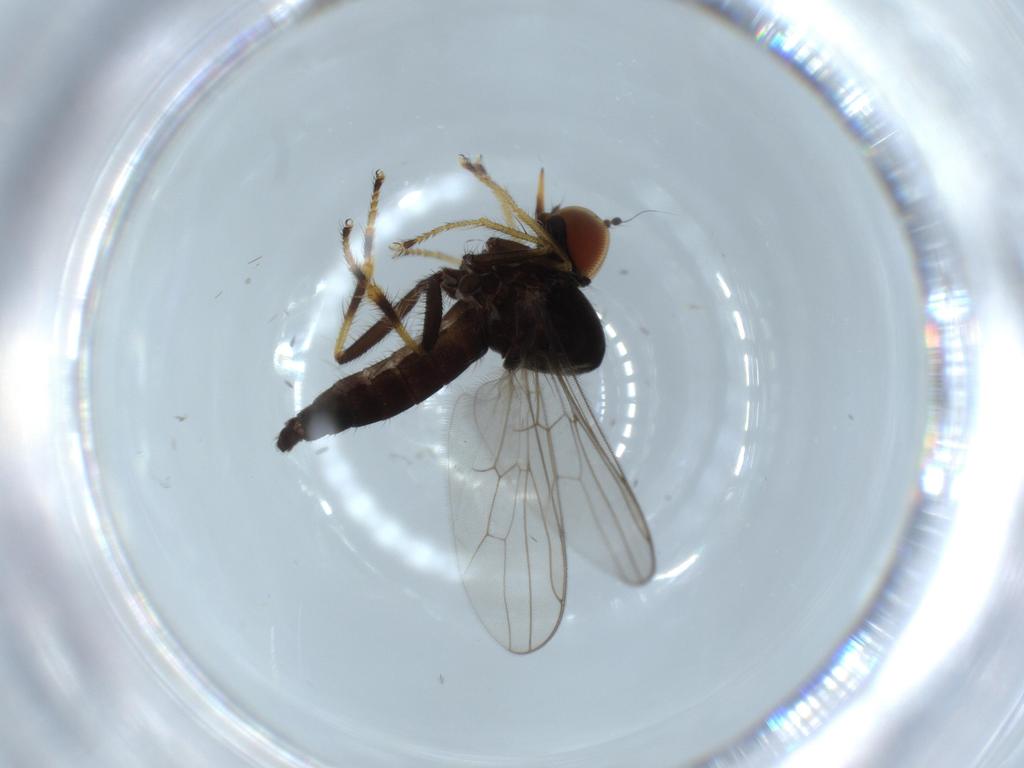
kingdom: Animalia
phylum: Arthropoda
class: Insecta
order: Diptera
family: Hybotidae
